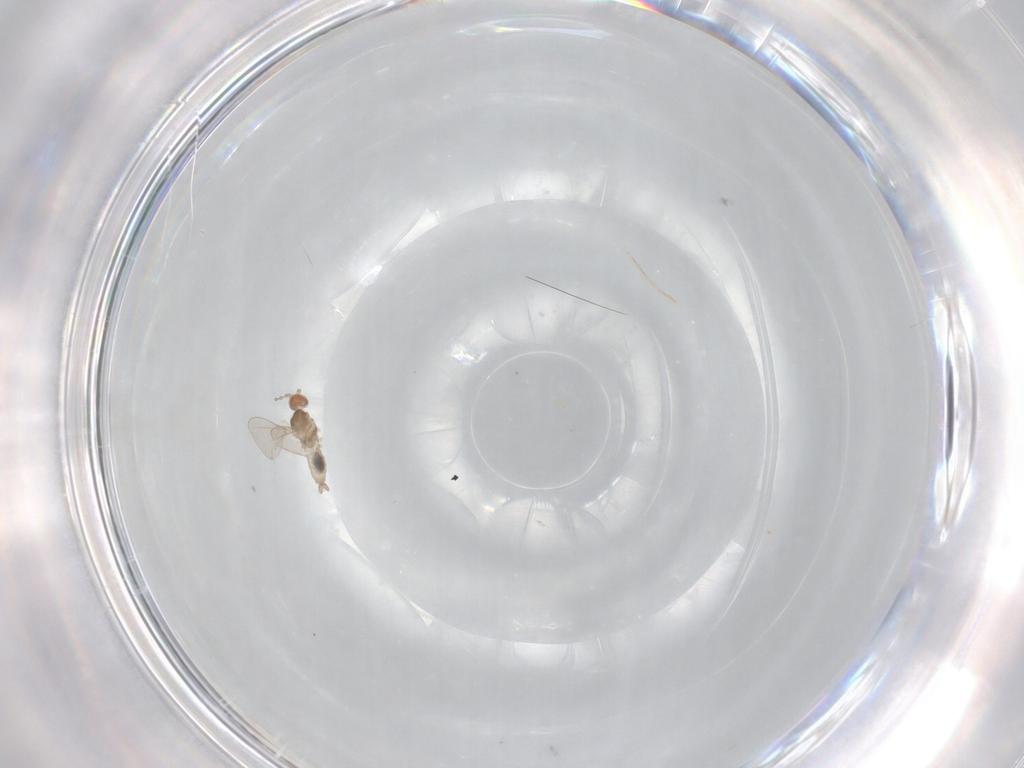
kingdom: Animalia
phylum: Arthropoda
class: Insecta
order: Diptera
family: Cecidomyiidae
